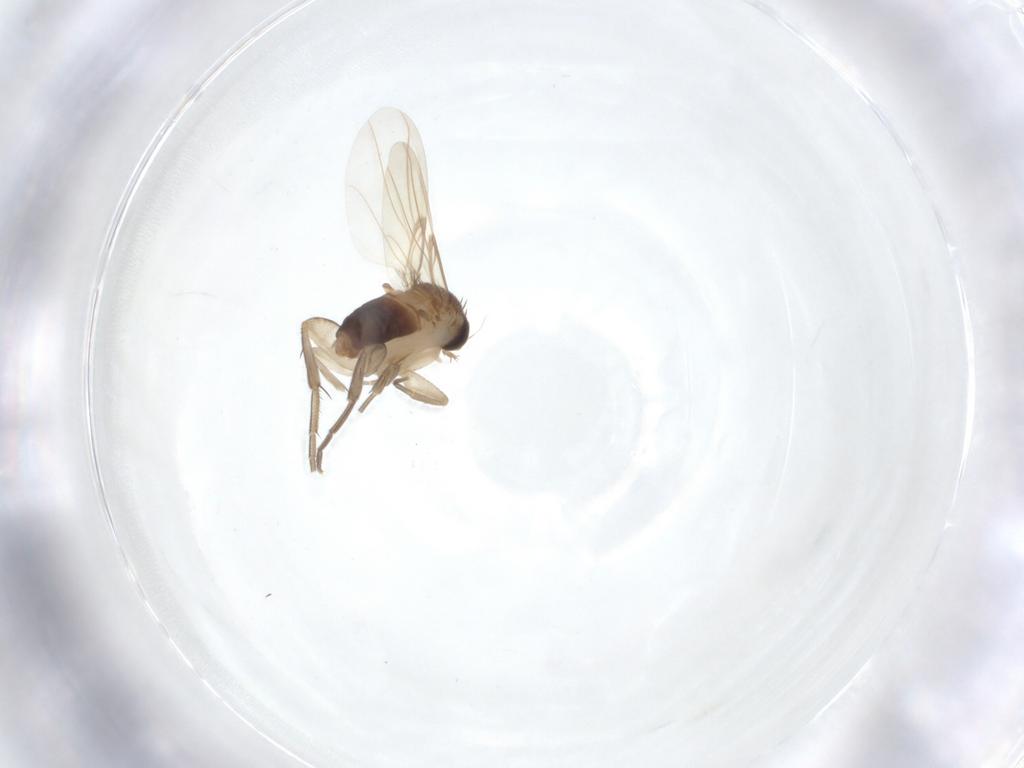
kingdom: Animalia
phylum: Arthropoda
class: Insecta
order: Diptera
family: Phoridae
